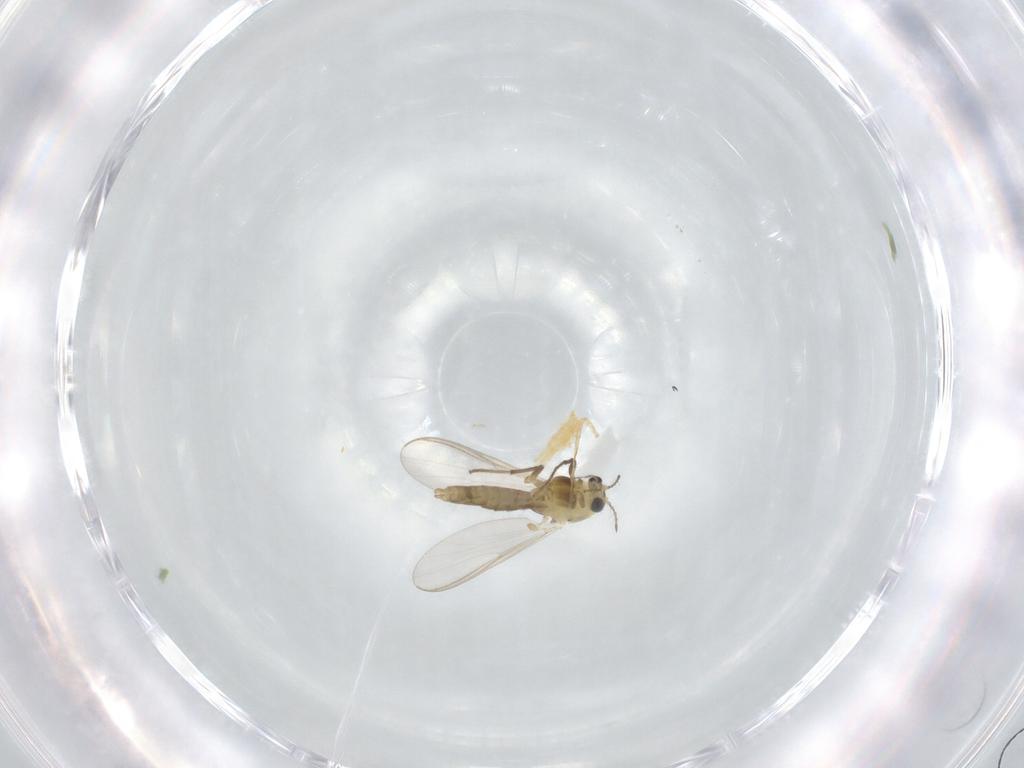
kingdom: Animalia
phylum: Arthropoda
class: Insecta
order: Diptera
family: Chironomidae
